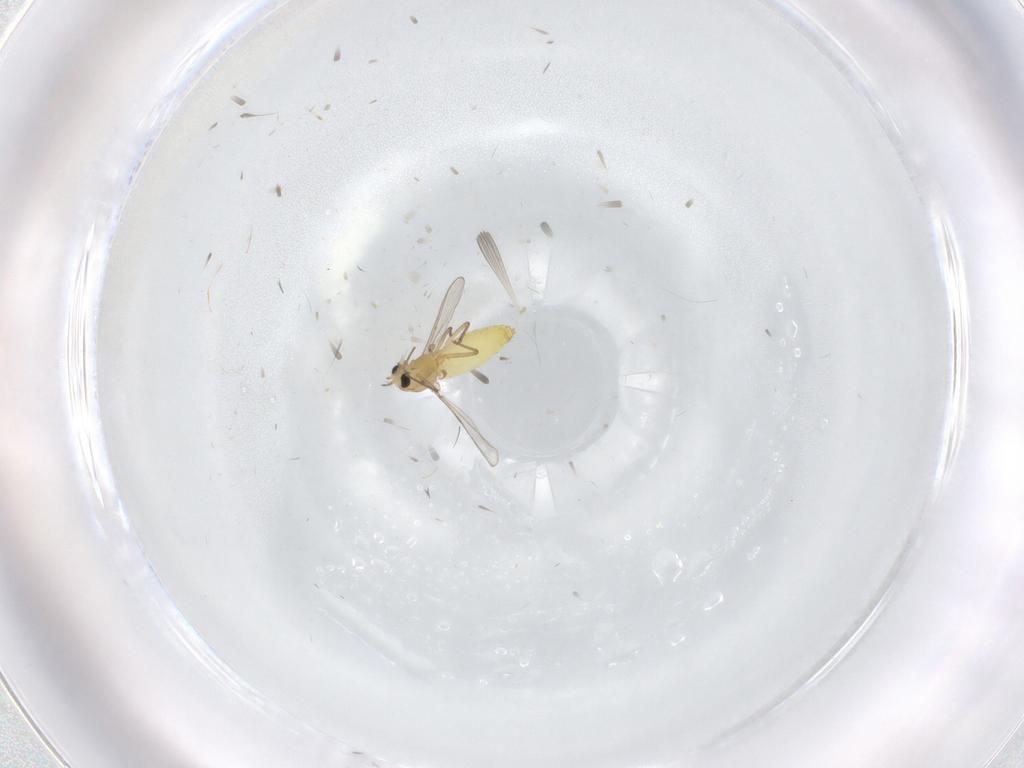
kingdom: Animalia
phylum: Arthropoda
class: Insecta
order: Diptera
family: Chironomidae
